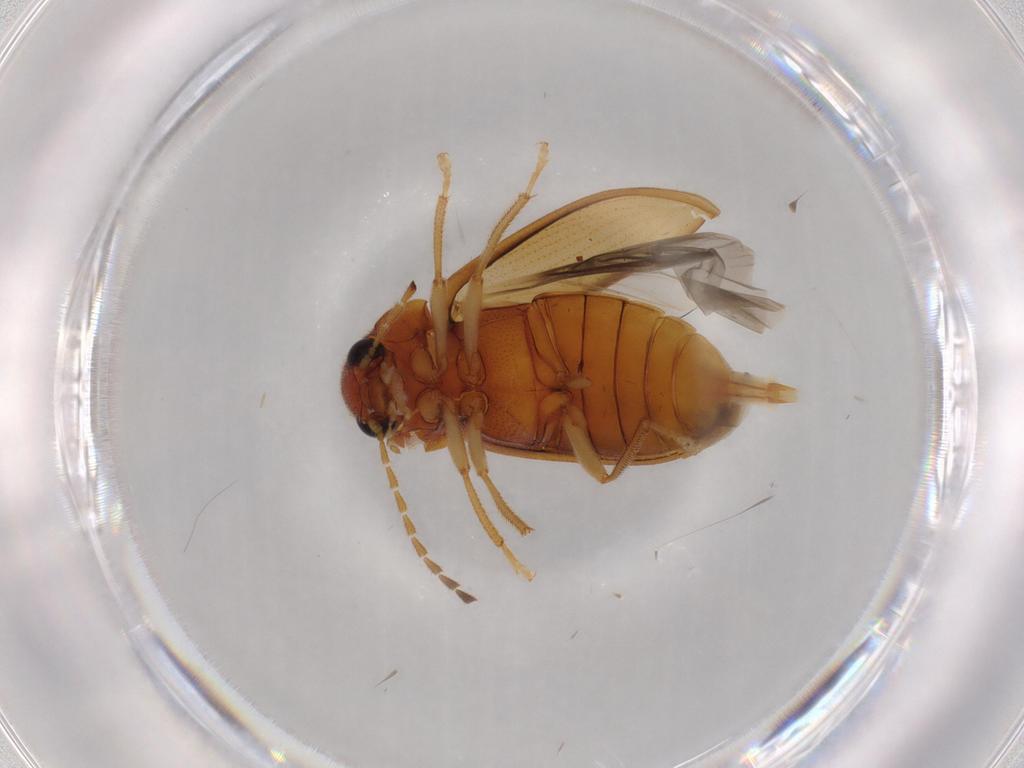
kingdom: Animalia
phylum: Arthropoda
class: Insecta
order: Coleoptera
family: Ptilodactylidae
